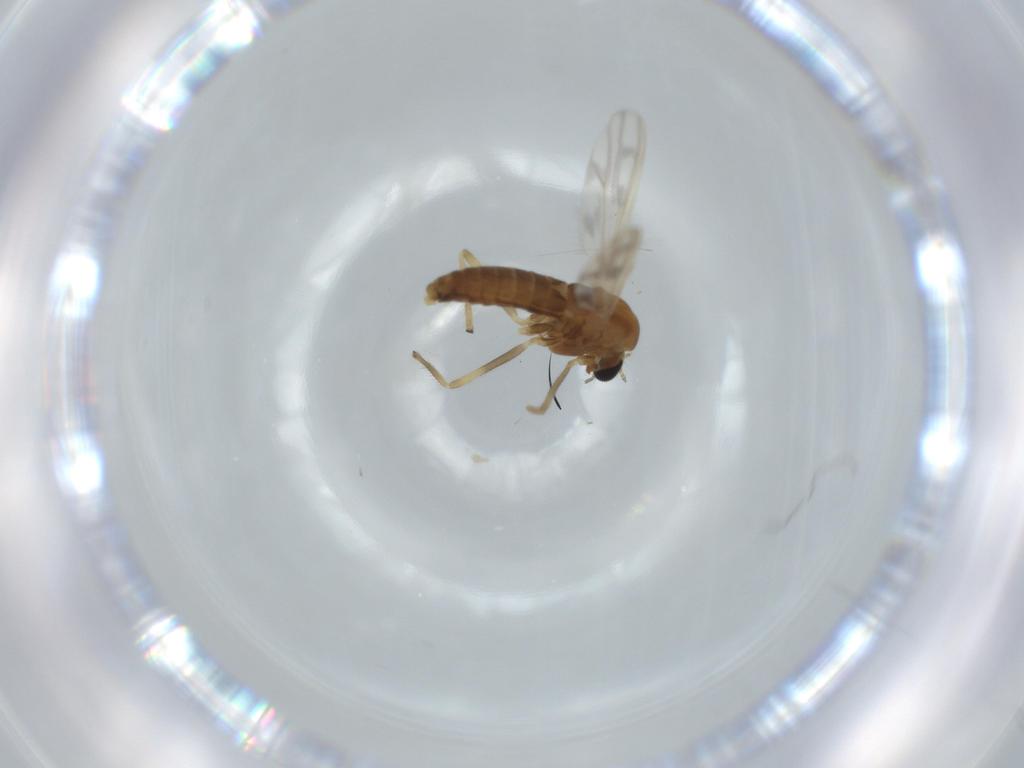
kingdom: Animalia
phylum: Arthropoda
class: Insecta
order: Diptera
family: Chironomidae
